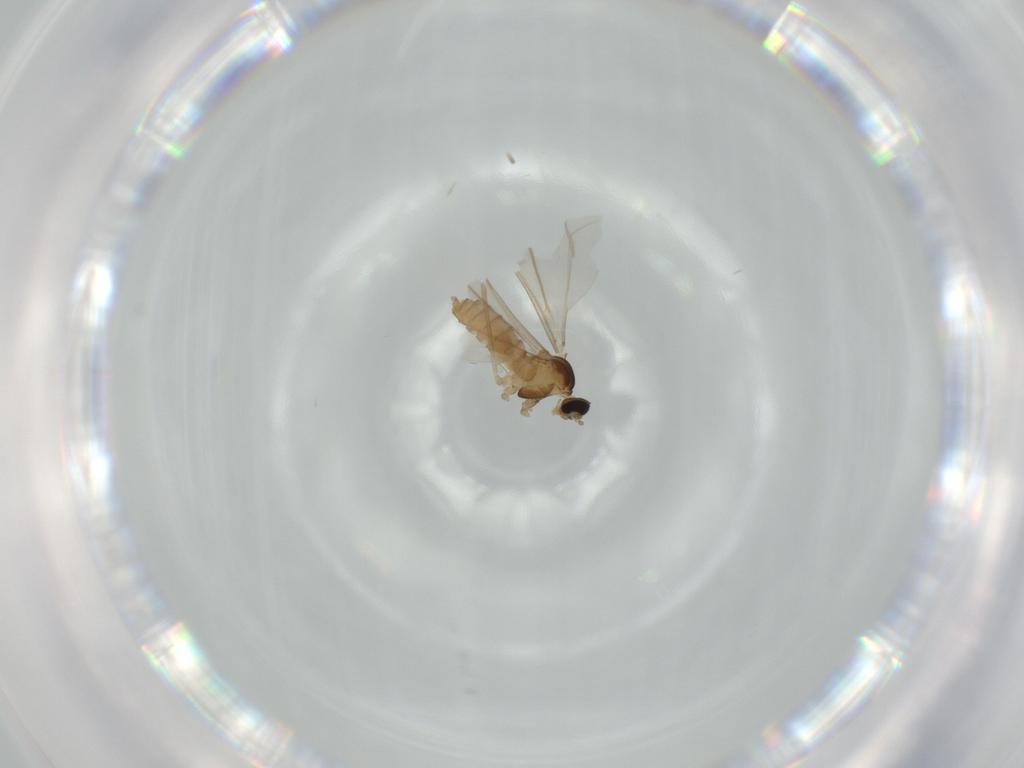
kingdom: Animalia
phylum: Arthropoda
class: Insecta
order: Diptera
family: Cecidomyiidae
